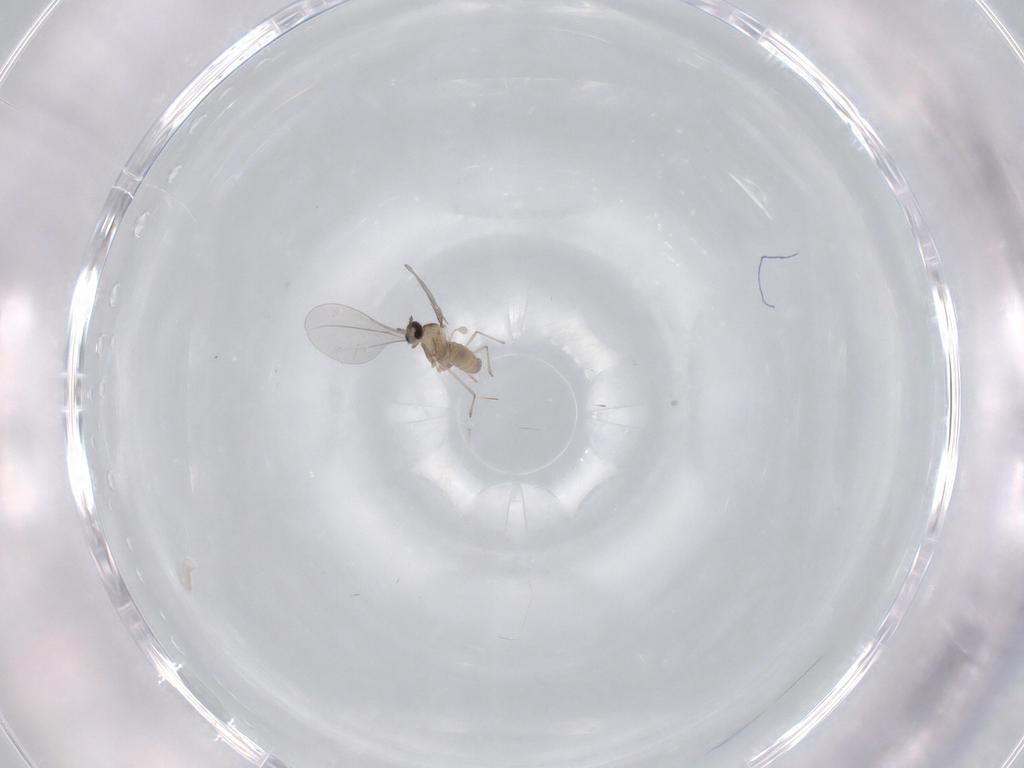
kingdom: Animalia
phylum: Arthropoda
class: Insecta
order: Diptera
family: Cecidomyiidae
